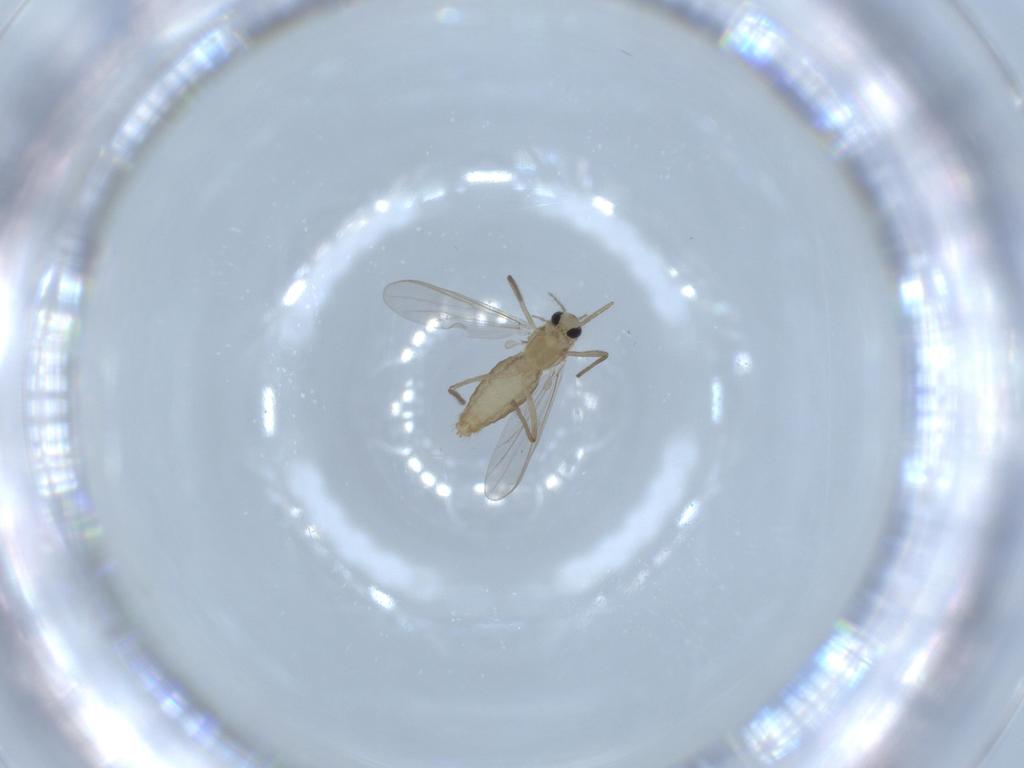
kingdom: Animalia
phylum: Arthropoda
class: Insecta
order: Diptera
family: Chironomidae
